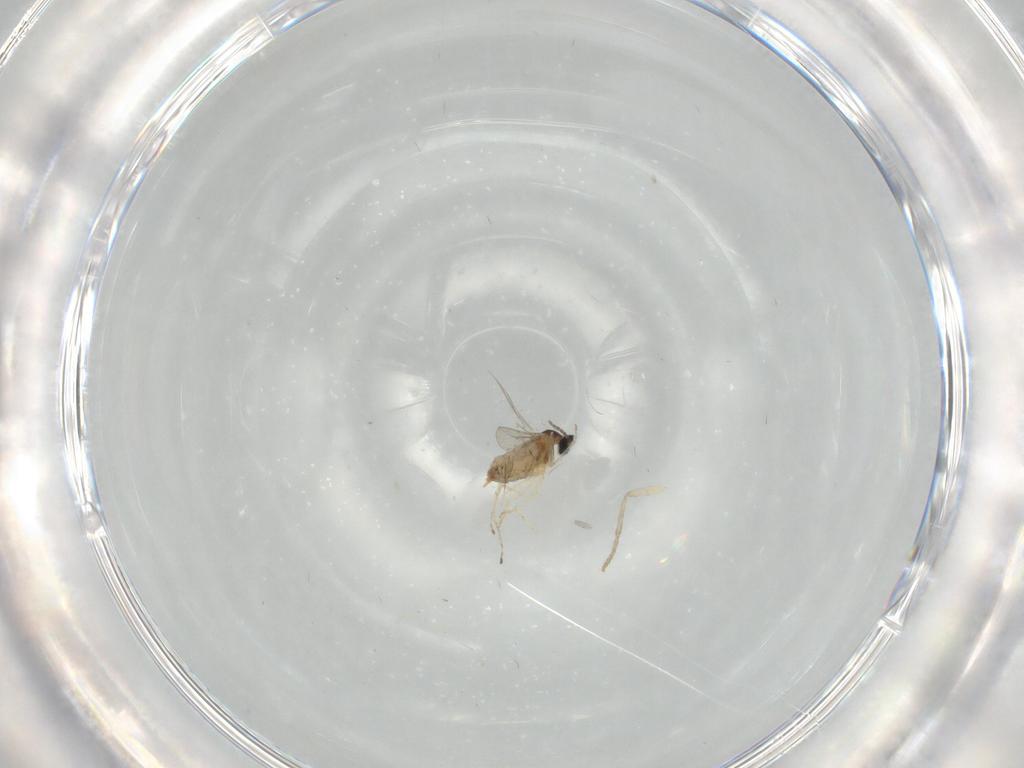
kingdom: Animalia
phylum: Arthropoda
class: Insecta
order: Diptera
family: Cecidomyiidae
